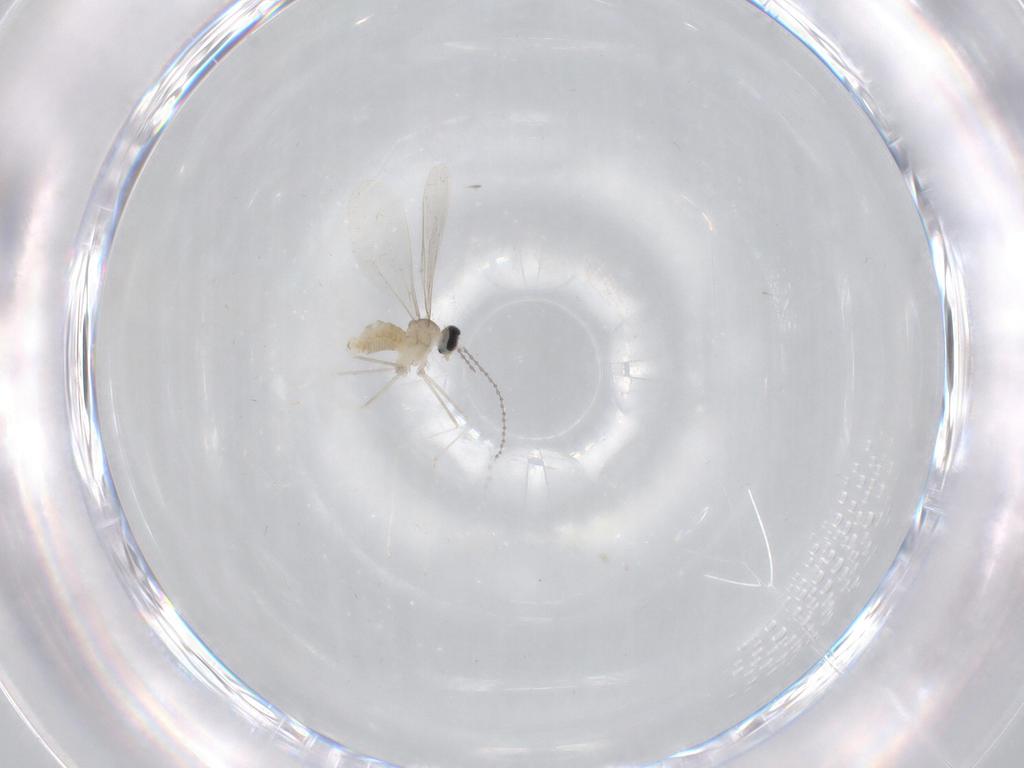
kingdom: Animalia
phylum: Arthropoda
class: Insecta
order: Diptera
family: Cecidomyiidae
